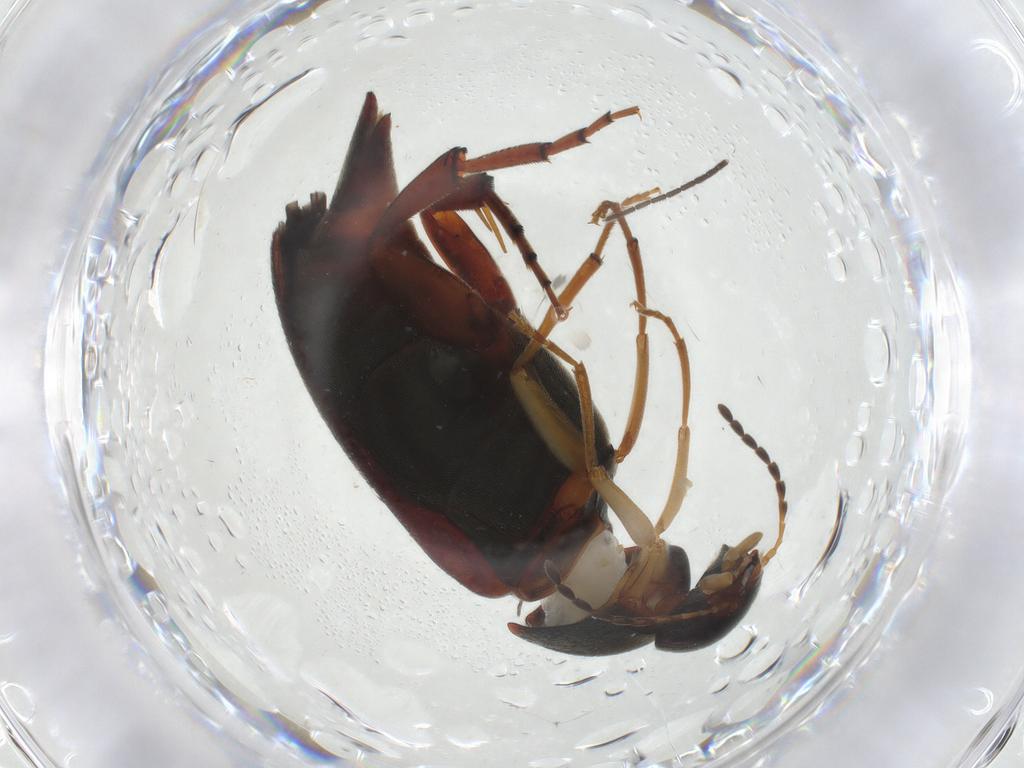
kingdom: Animalia
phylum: Arthropoda
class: Insecta
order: Coleoptera
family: Mordellidae
